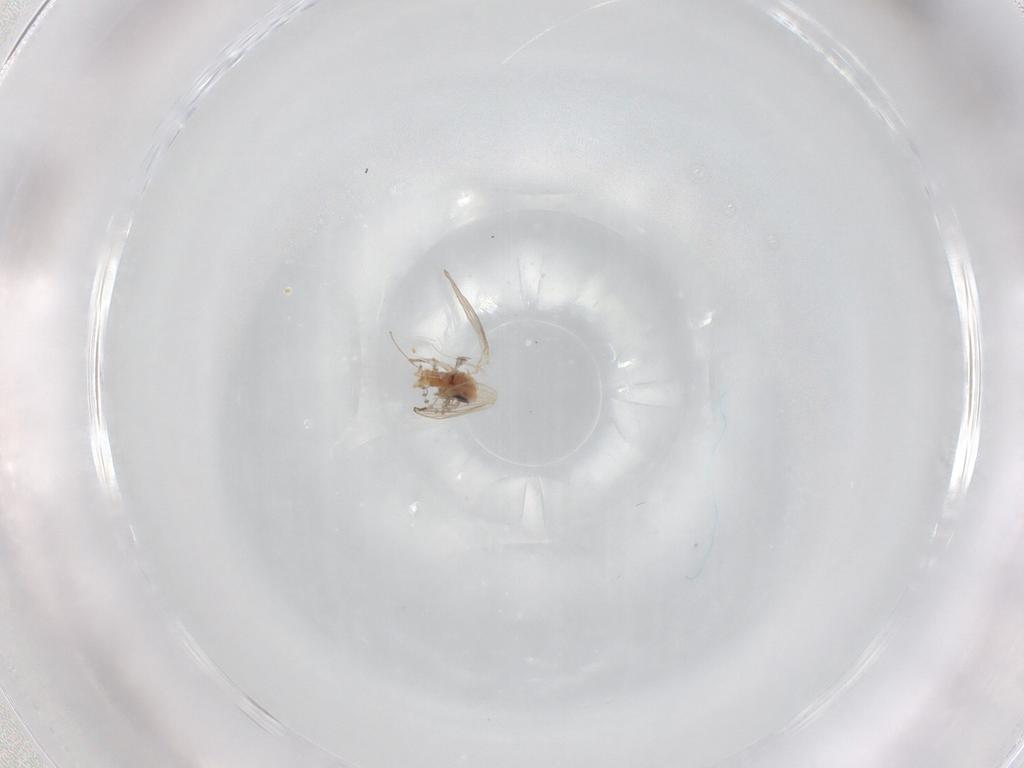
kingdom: Animalia
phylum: Arthropoda
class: Insecta
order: Diptera
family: Psychodidae
